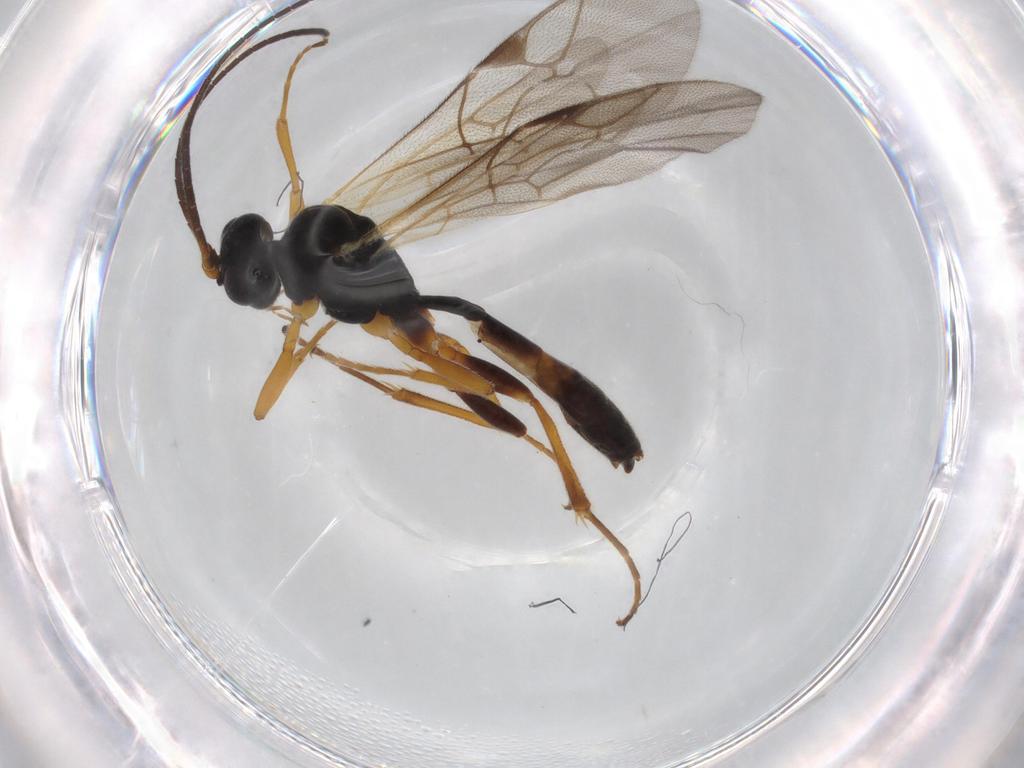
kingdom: Animalia
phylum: Arthropoda
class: Insecta
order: Hymenoptera
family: Ichneumonidae
